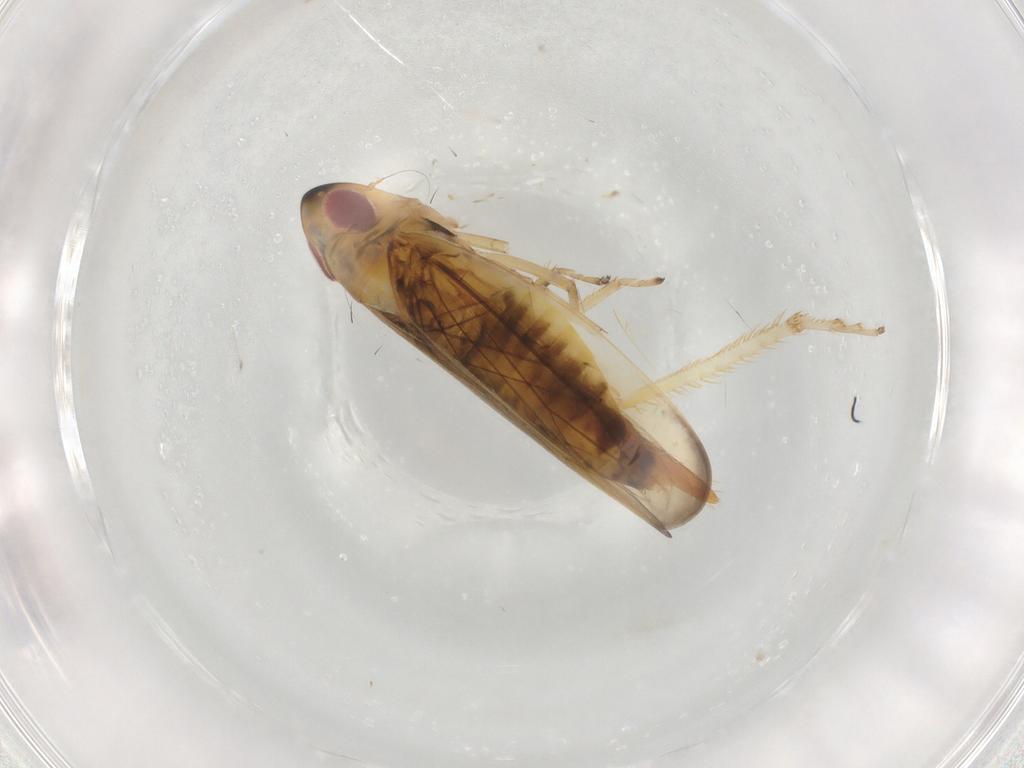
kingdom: Animalia
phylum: Arthropoda
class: Insecta
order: Hemiptera
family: Cicadellidae
